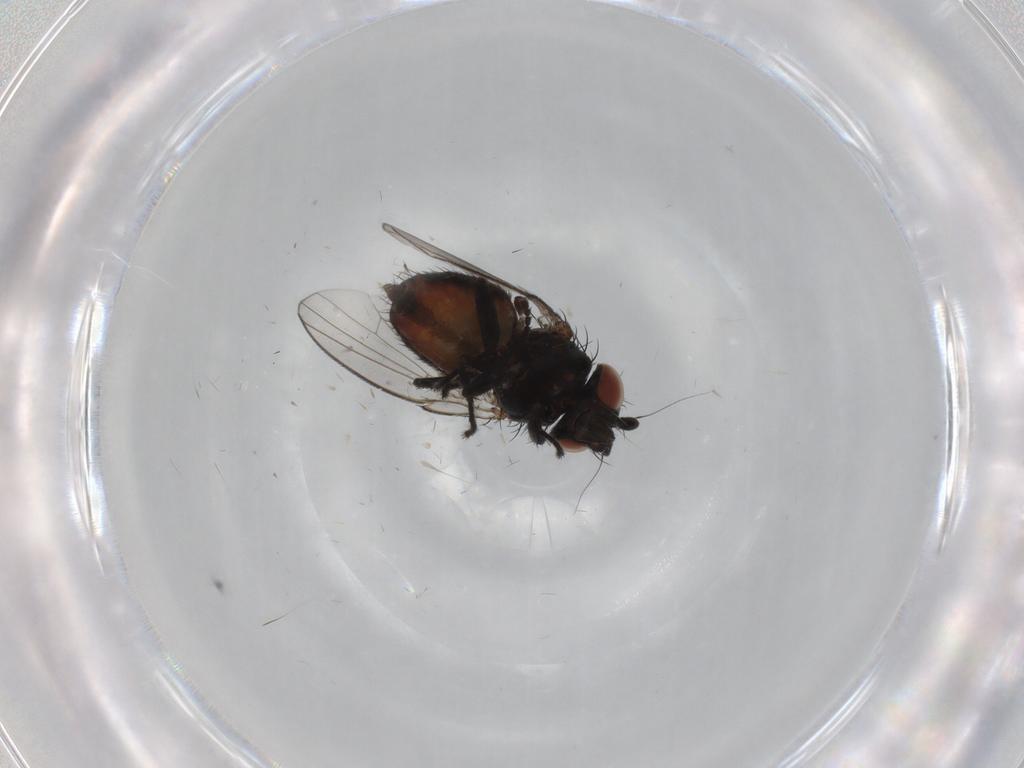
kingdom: Animalia
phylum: Arthropoda
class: Insecta
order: Diptera
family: Milichiidae
